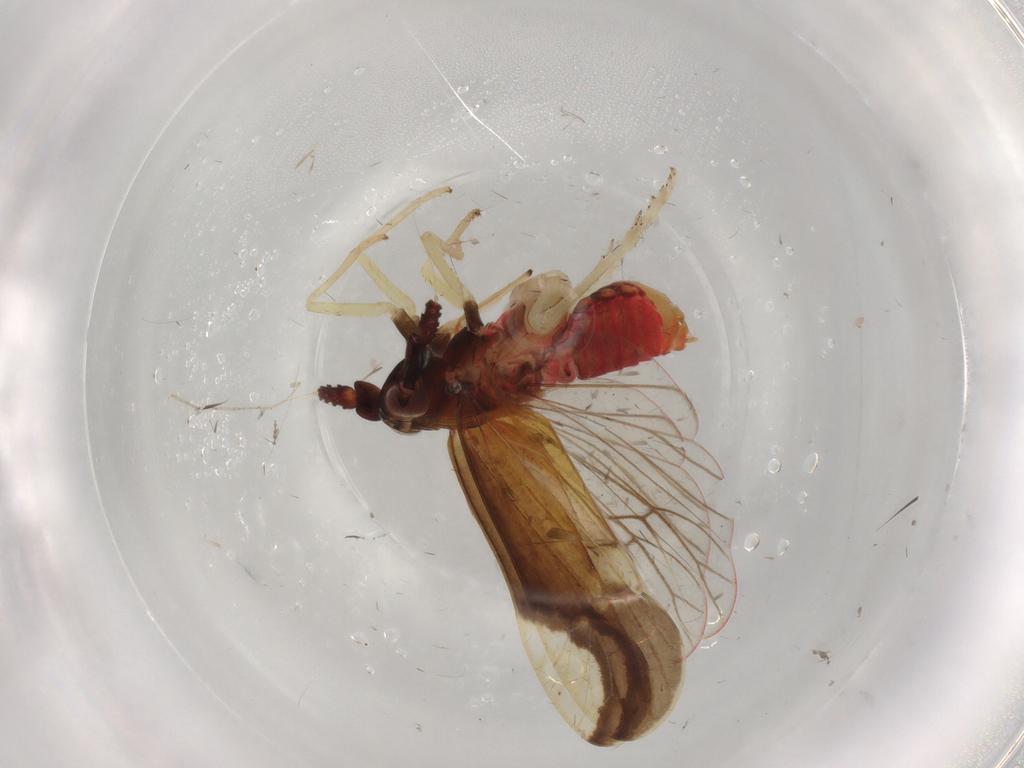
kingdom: Animalia
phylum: Arthropoda
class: Insecta
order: Hemiptera
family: Delphacidae
